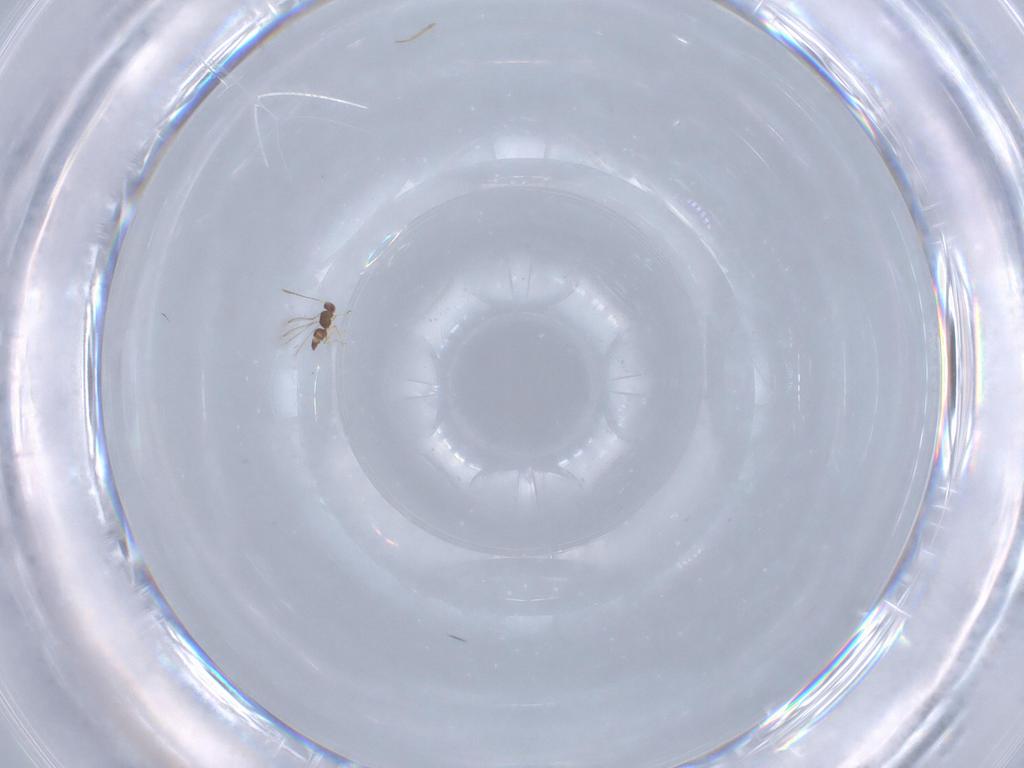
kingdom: Animalia
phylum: Arthropoda
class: Insecta
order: Hymenoptera
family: Mymaridae
